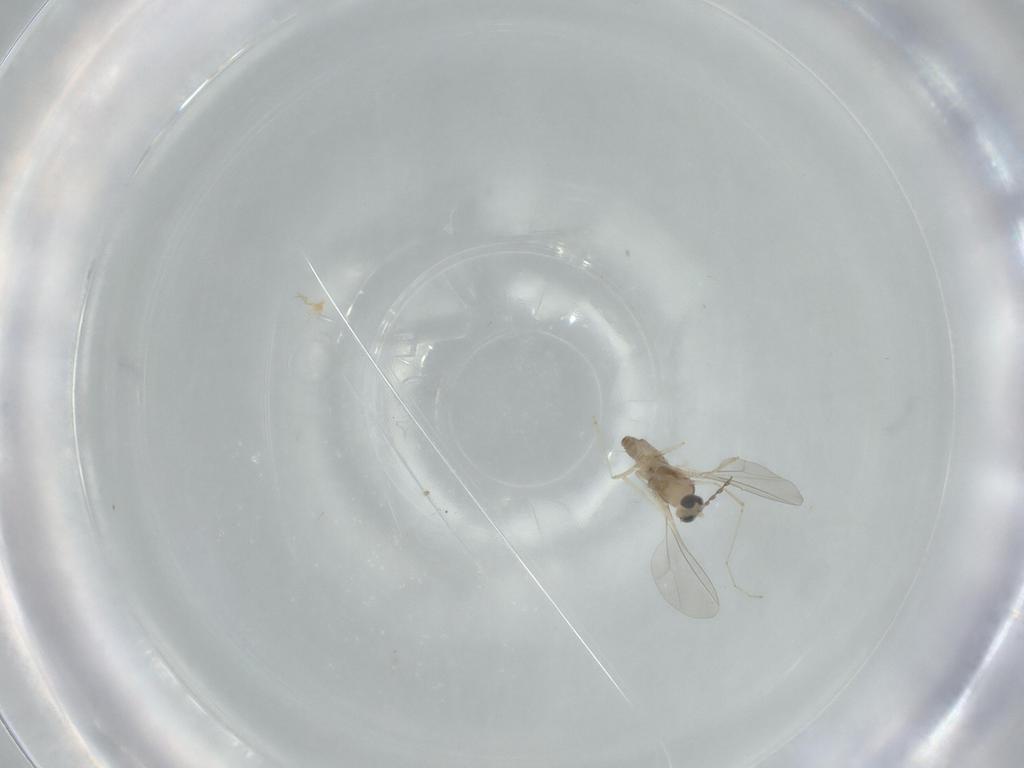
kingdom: Animalia
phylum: Arthropoda
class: Insecta
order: Diptera
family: Cecidomyiidae
